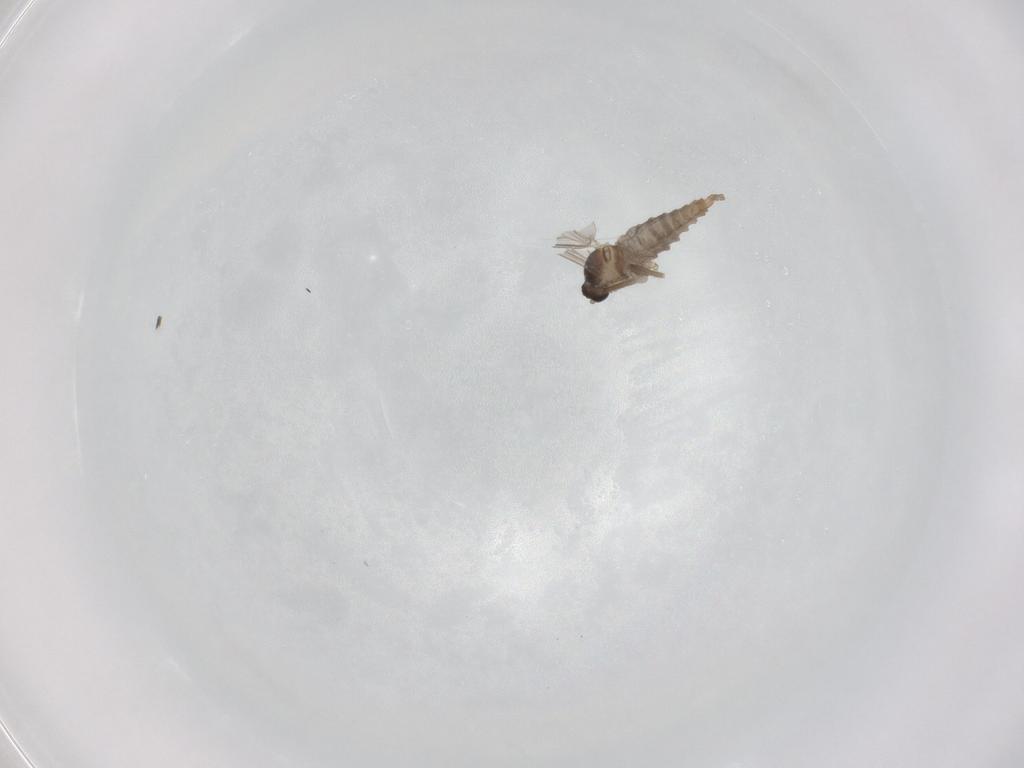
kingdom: Animalia
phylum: Arthropoda
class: Insecta
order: Diptera
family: Cecidomyiidae
